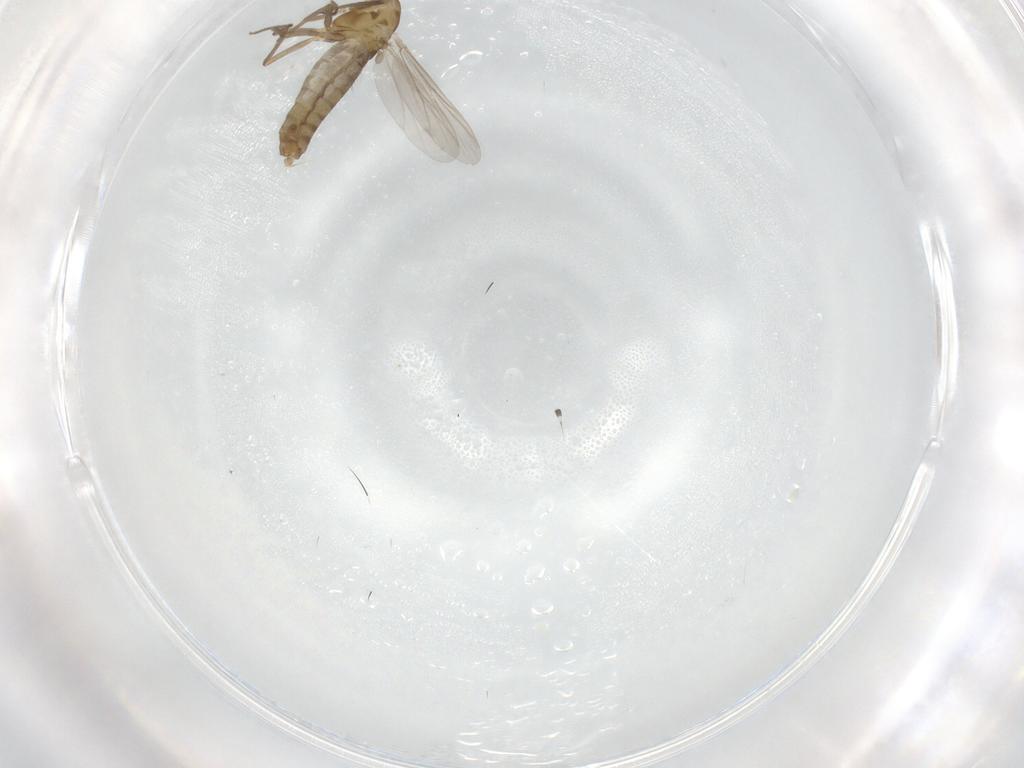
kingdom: Animalia
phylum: Arthropoda
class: Insecta
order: Diptera
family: Chironomidae
